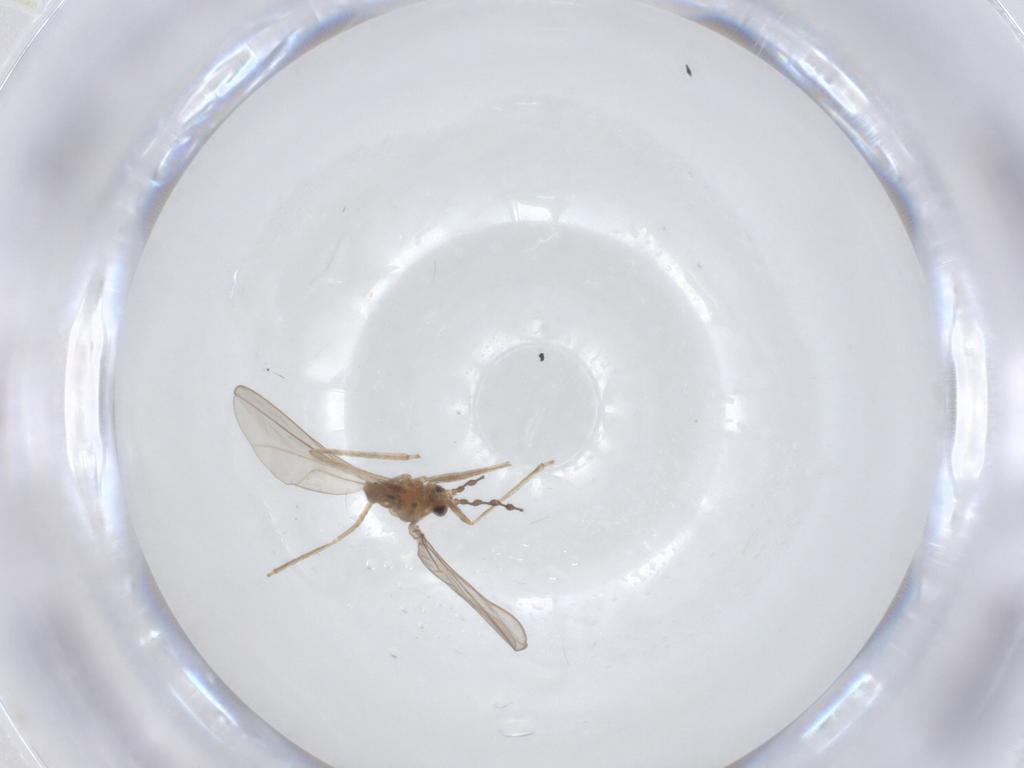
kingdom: Animalia
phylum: Arthropoda
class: Insecta
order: Diptera
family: Cecidomyiidae
